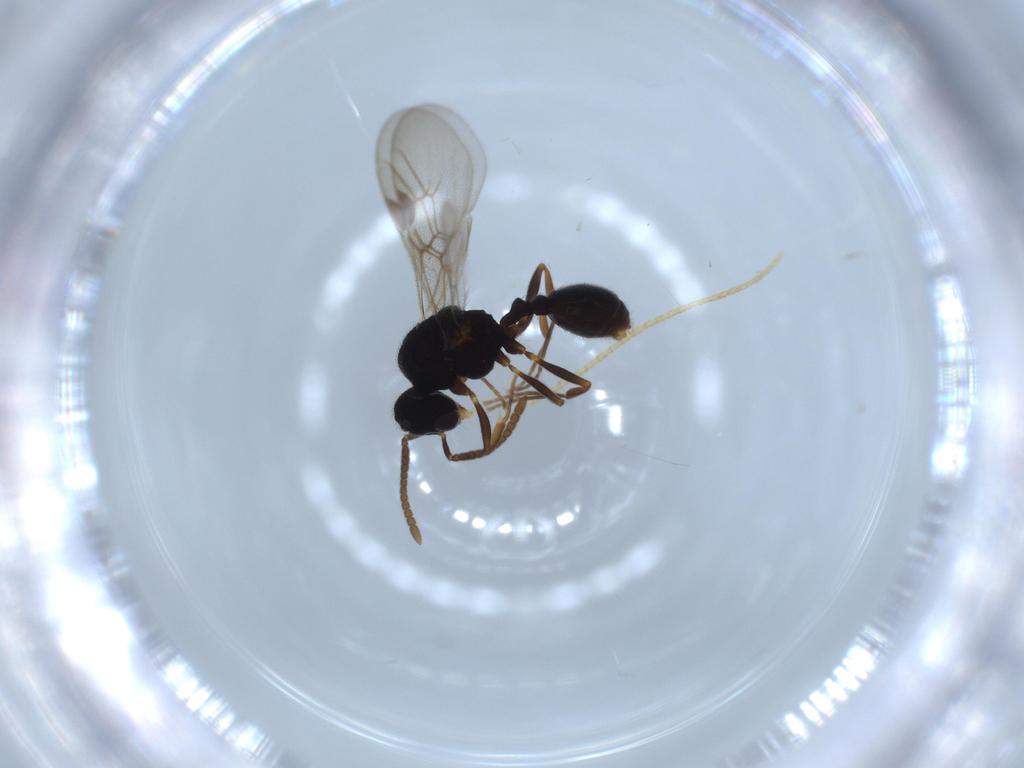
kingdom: Animalia
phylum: Arthropoda
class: Insecta
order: Hymenoptera
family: Formicidae
